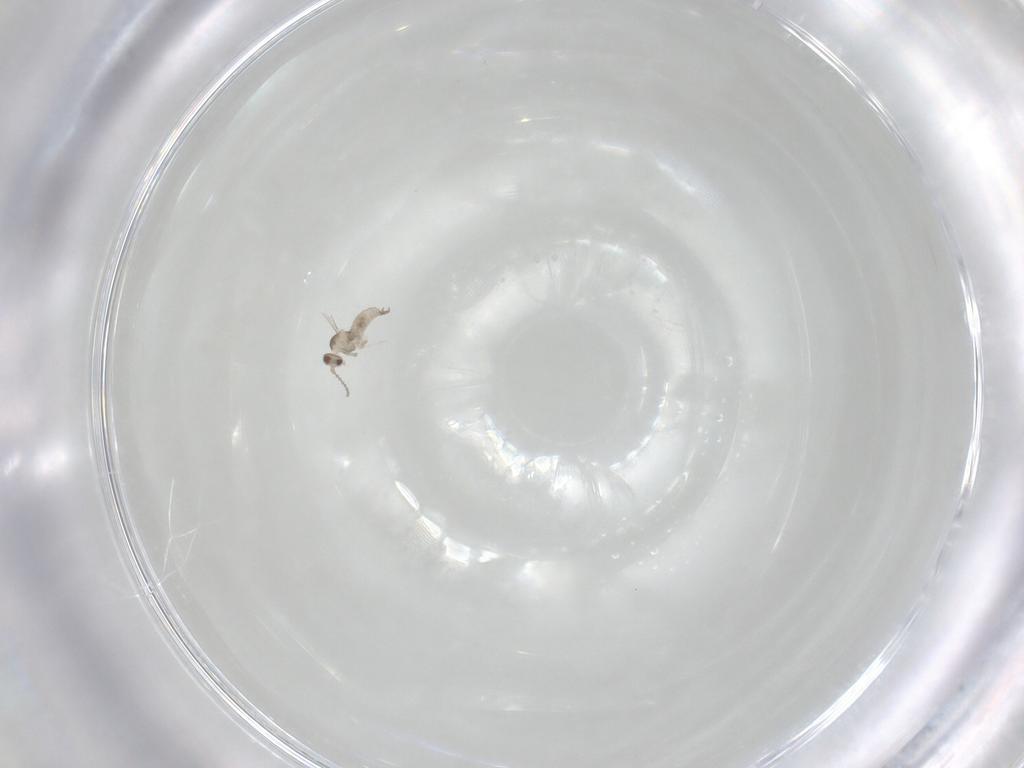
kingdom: Animalia
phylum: Arthropoda
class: Insecta
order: Diptera
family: Cecidomyiidae
